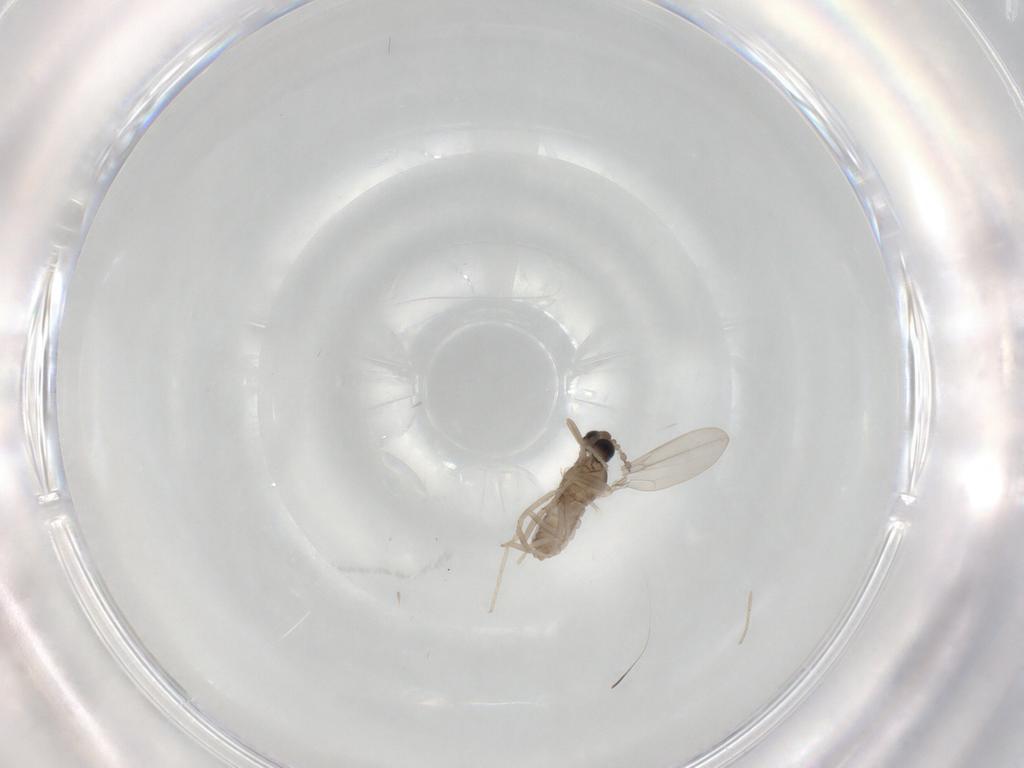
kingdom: Animalia
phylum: Arthropoda
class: Insecta
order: Diptera
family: Cecidomyiidae
